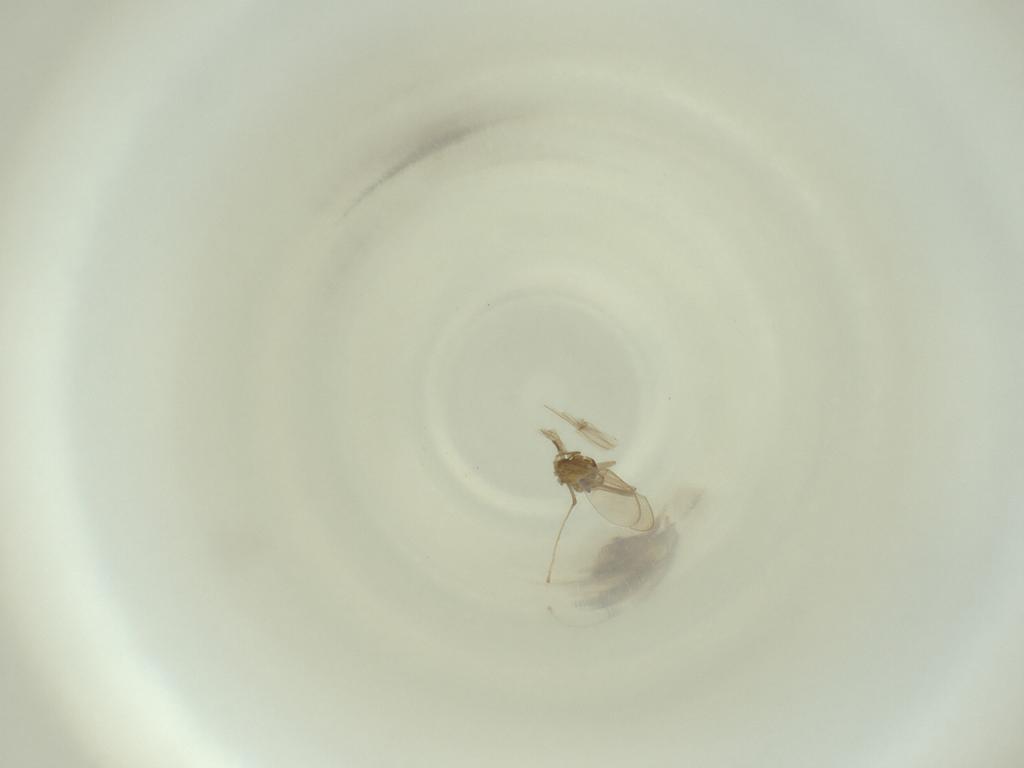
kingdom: Animalia
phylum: Arthropoda
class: Insecta
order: Diptera
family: Cecidomyiidae
